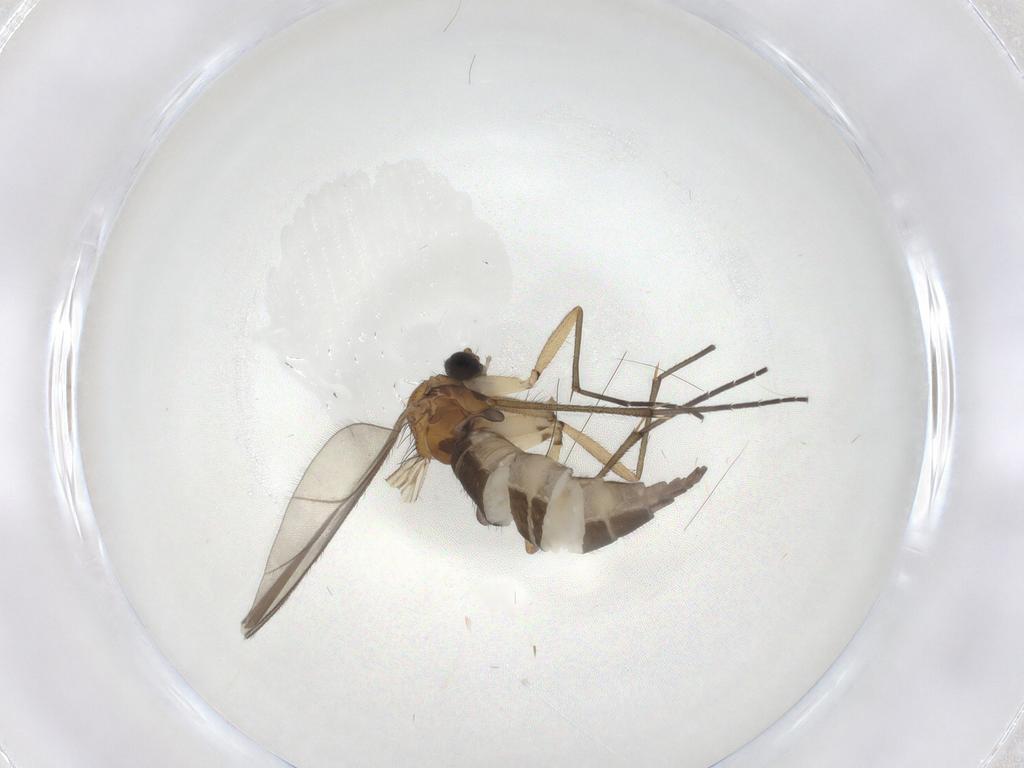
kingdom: Animalia
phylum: Arthropoda
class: Insecta
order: Diptera
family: Sciaridae
